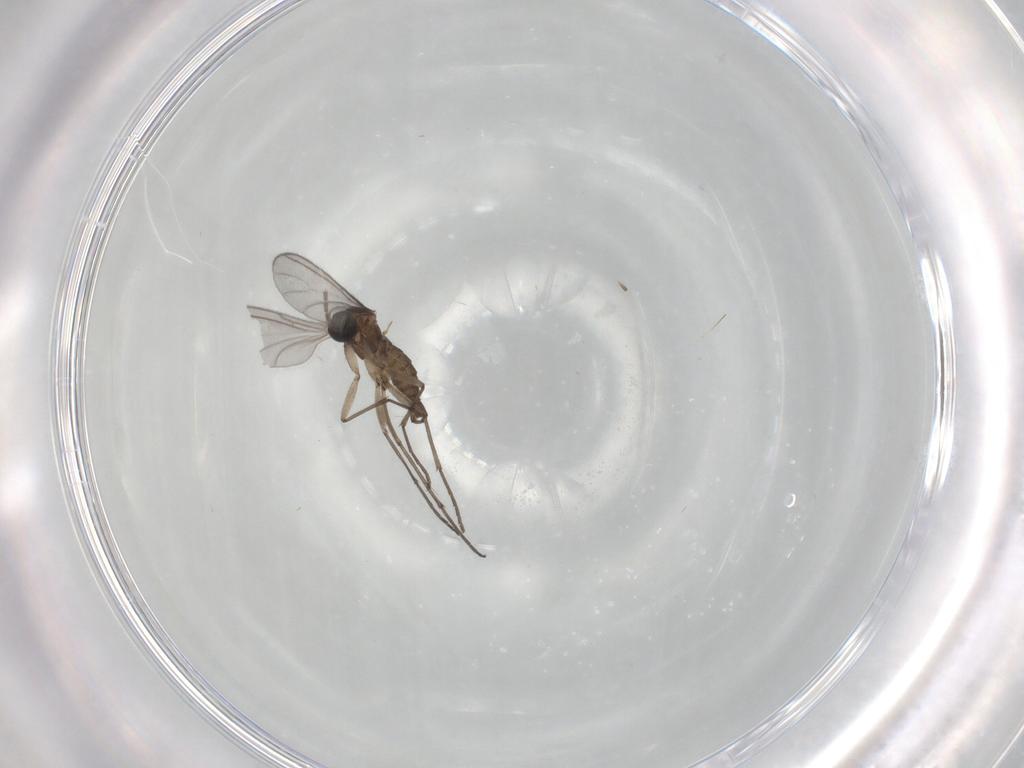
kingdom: Animalia
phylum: Arthropoda
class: Insecta
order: Diptera
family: Sciaridae
